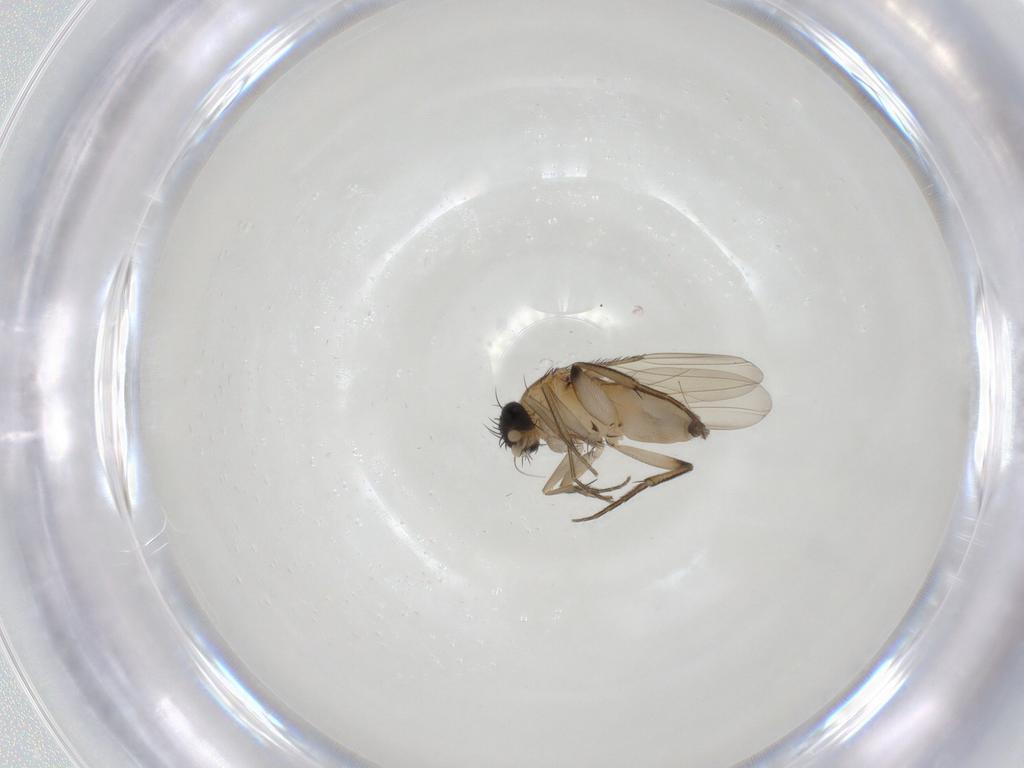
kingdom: Animalia
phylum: Arthropoda
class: Insecta
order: Diptera
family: Phoridae
